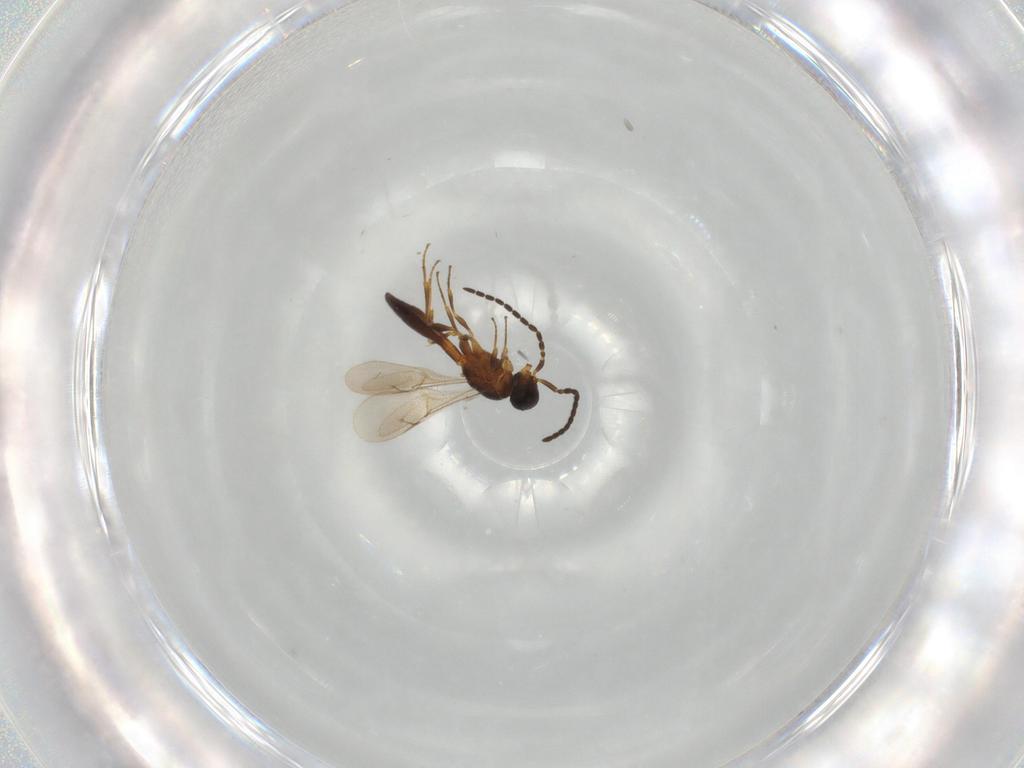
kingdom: Animalia
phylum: Arthropoda
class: Insecta
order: Hymenoptera
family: Scelionidae
